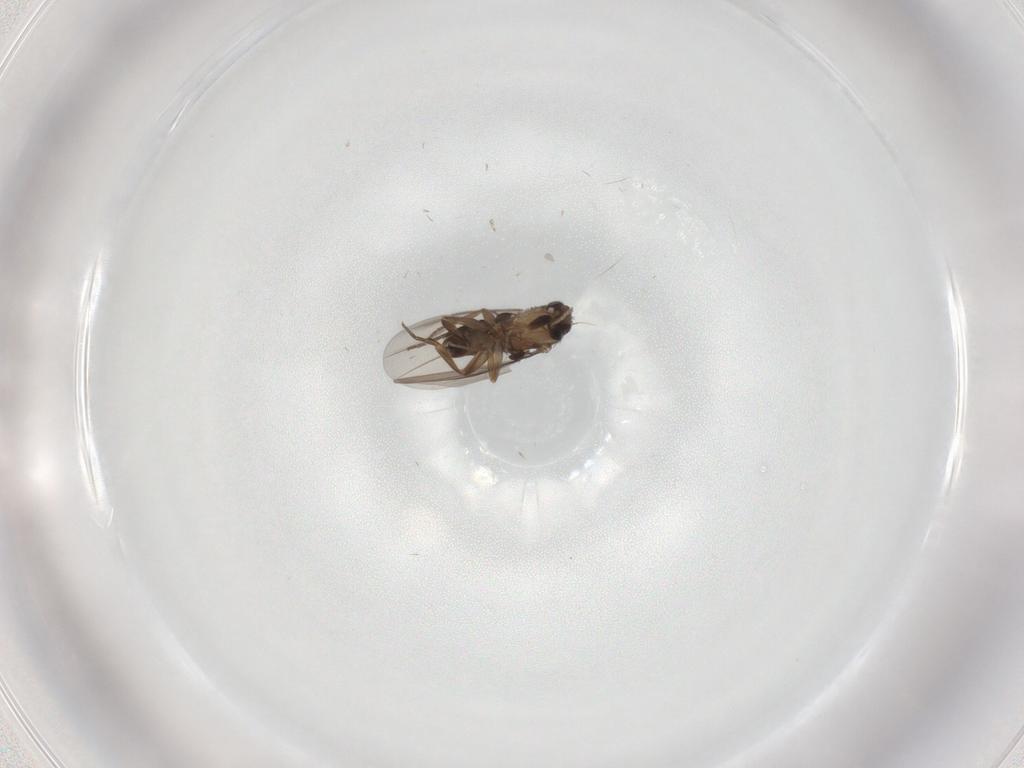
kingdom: Animalia
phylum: Arthropoda
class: Insecta
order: Diptera
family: Phoridae
